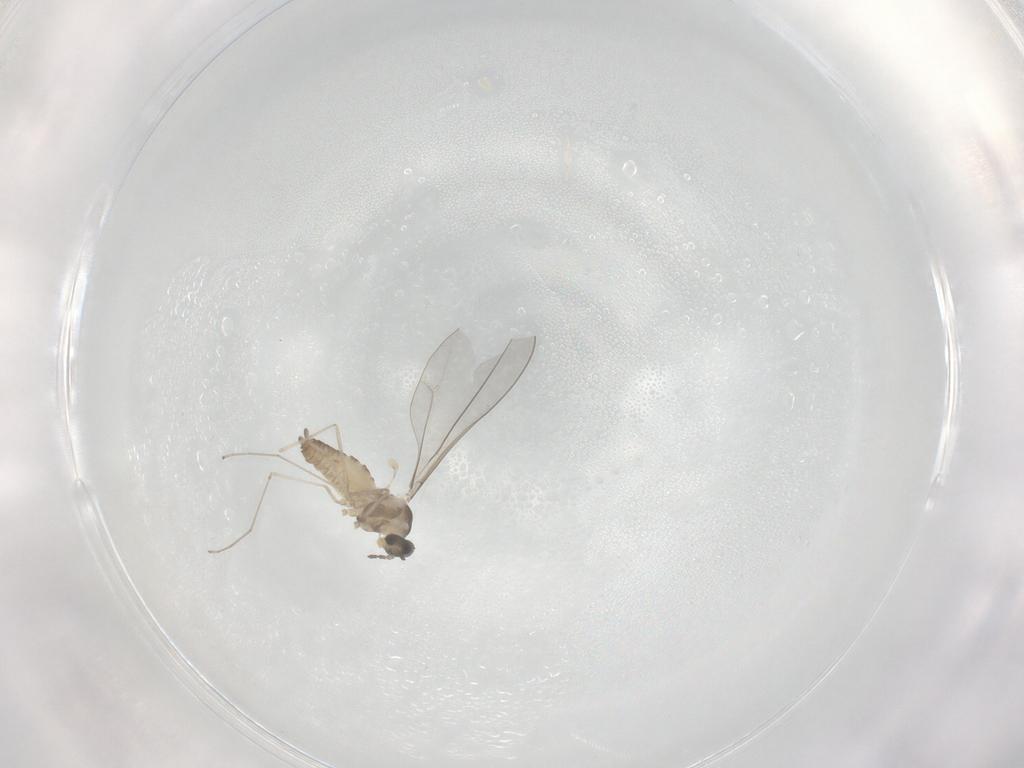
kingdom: Animalia
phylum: Arthropoda
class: Insecta
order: Diptera
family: Cecidomyiidae
